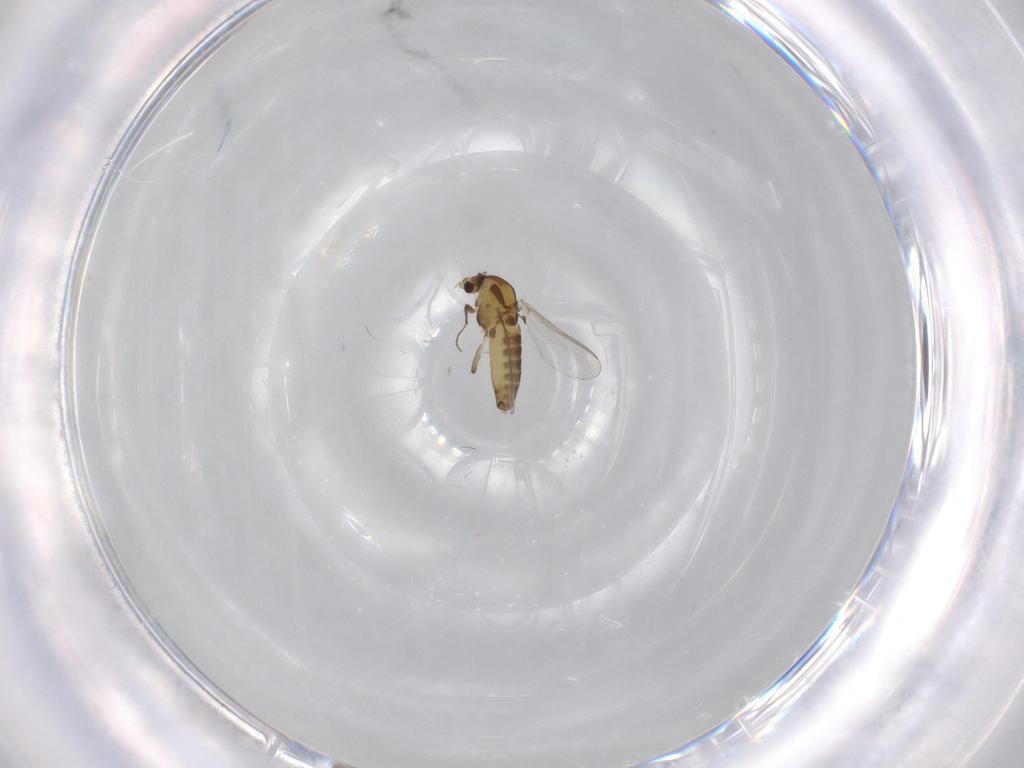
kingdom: Animalia
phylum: Arthropoda
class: Insecta
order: Diptera
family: Chironomidae
